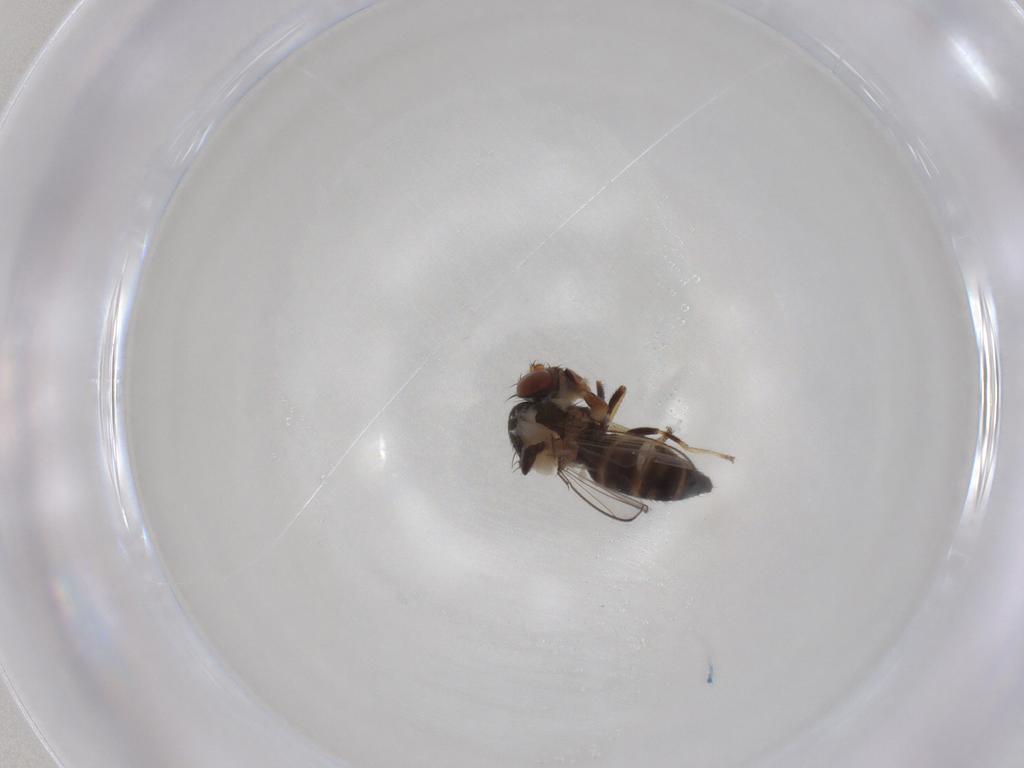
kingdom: Animalia
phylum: Arthropoda
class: Insecta
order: Diptera
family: Ephydridae
